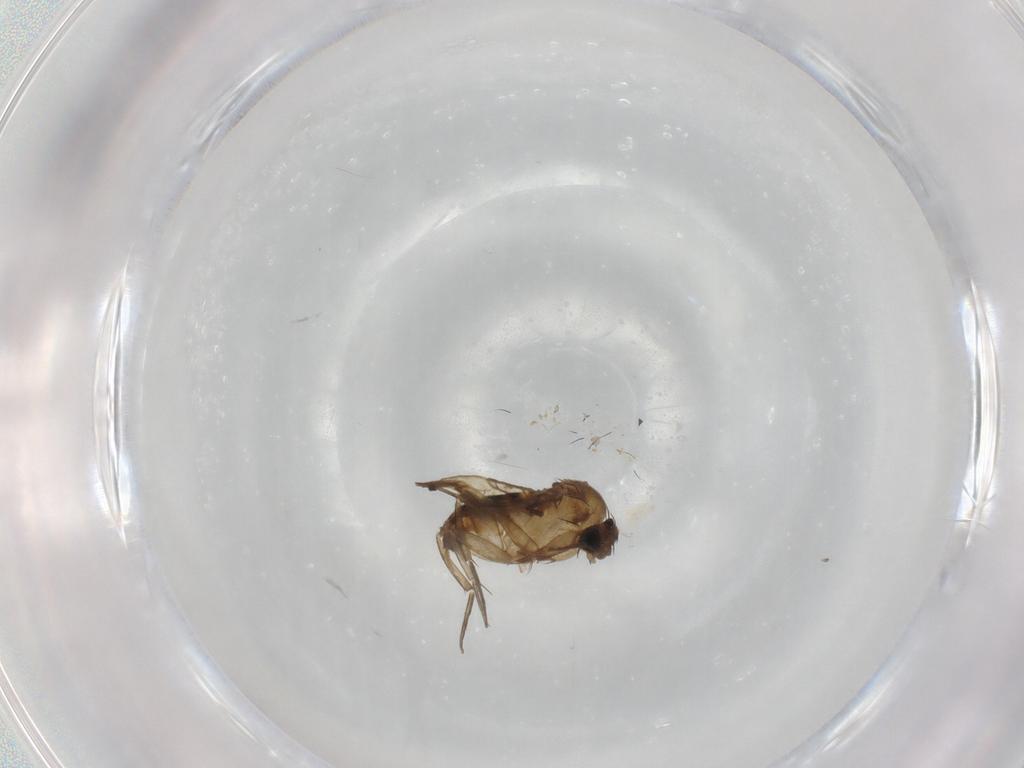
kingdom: Animalia
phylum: Arthropoda
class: Insecta
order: Diptera
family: Phoridae
